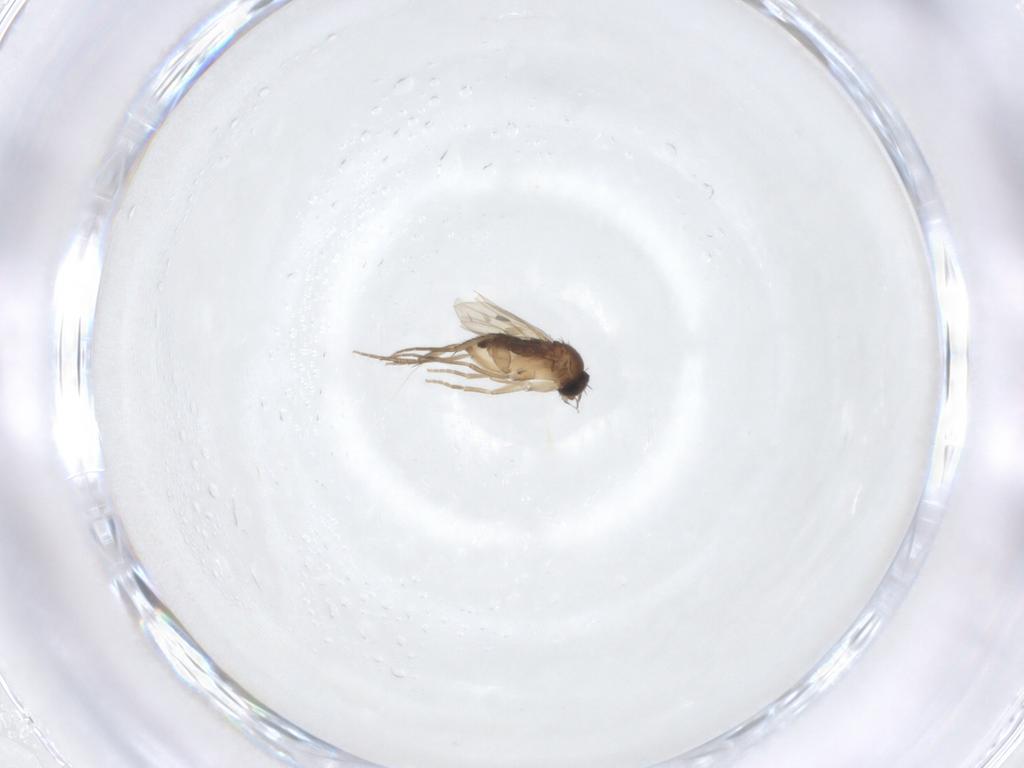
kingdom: Animalia
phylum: Arthropoda
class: Insecta
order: Diptera
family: Phoridae
